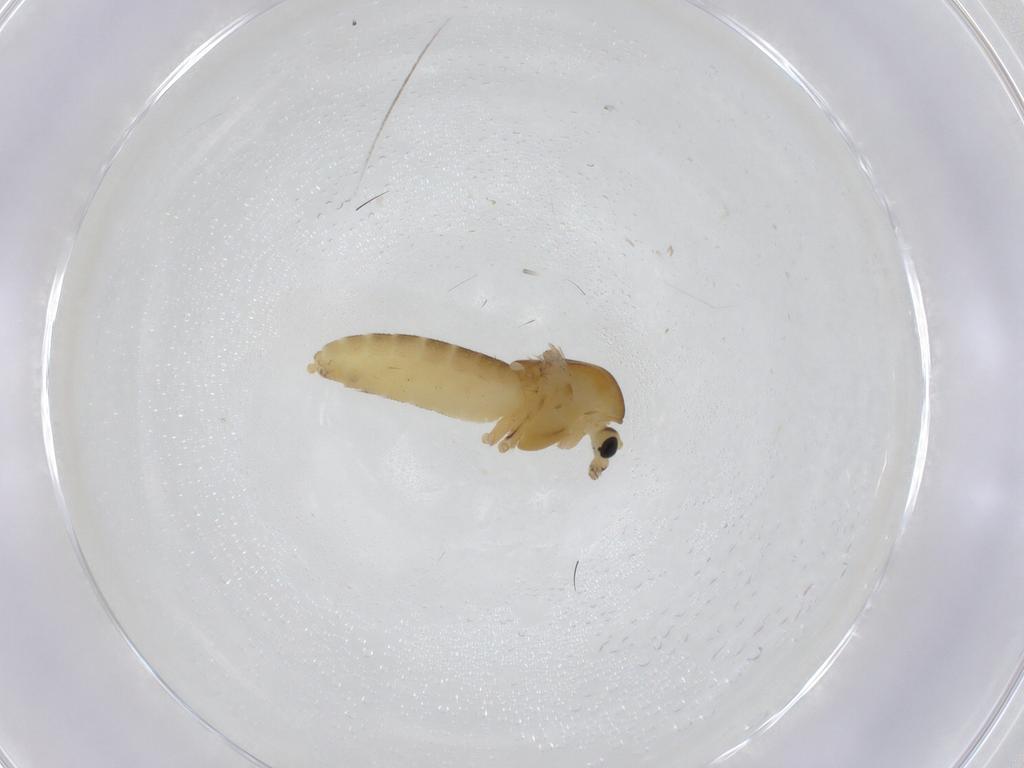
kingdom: Animalia
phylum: Arthropoda
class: Insecta
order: Diptera
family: Chironomidae
